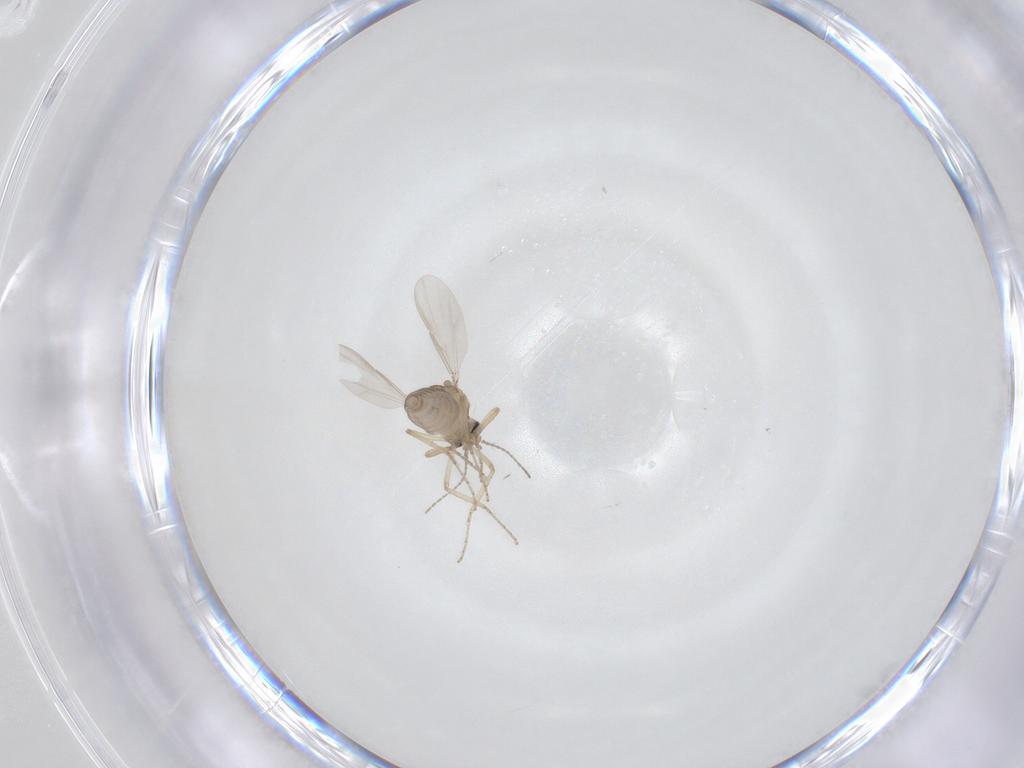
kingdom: Animalia
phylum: Arthropoda
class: Insecta
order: Diptera
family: Ceratopogonidae
